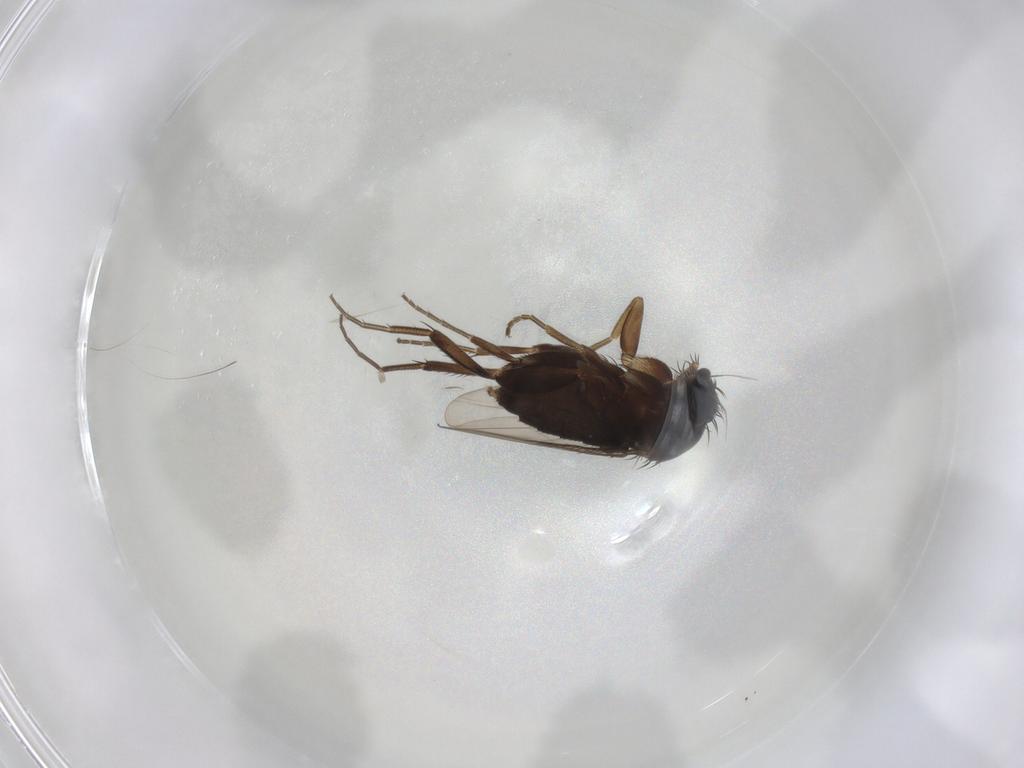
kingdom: Animalia
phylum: Arthropoda
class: Insecta
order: Diptera
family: Phoridae
